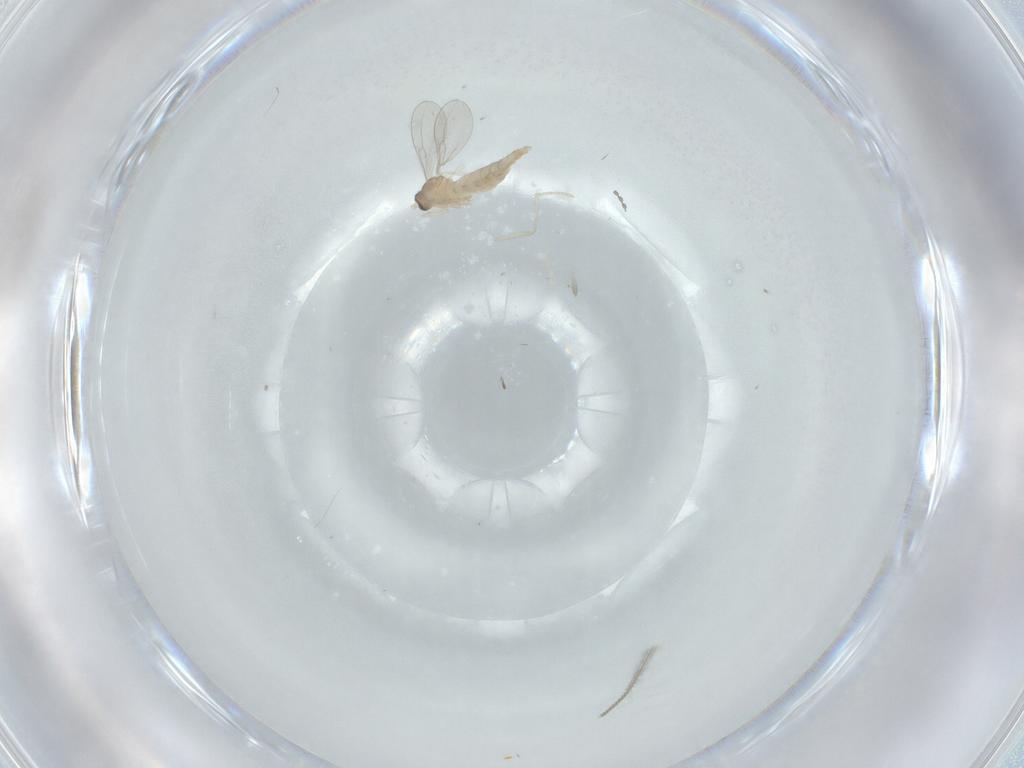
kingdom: Animalia
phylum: Arthropoda
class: Insecta
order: Diptera
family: Cecidomyiidae
